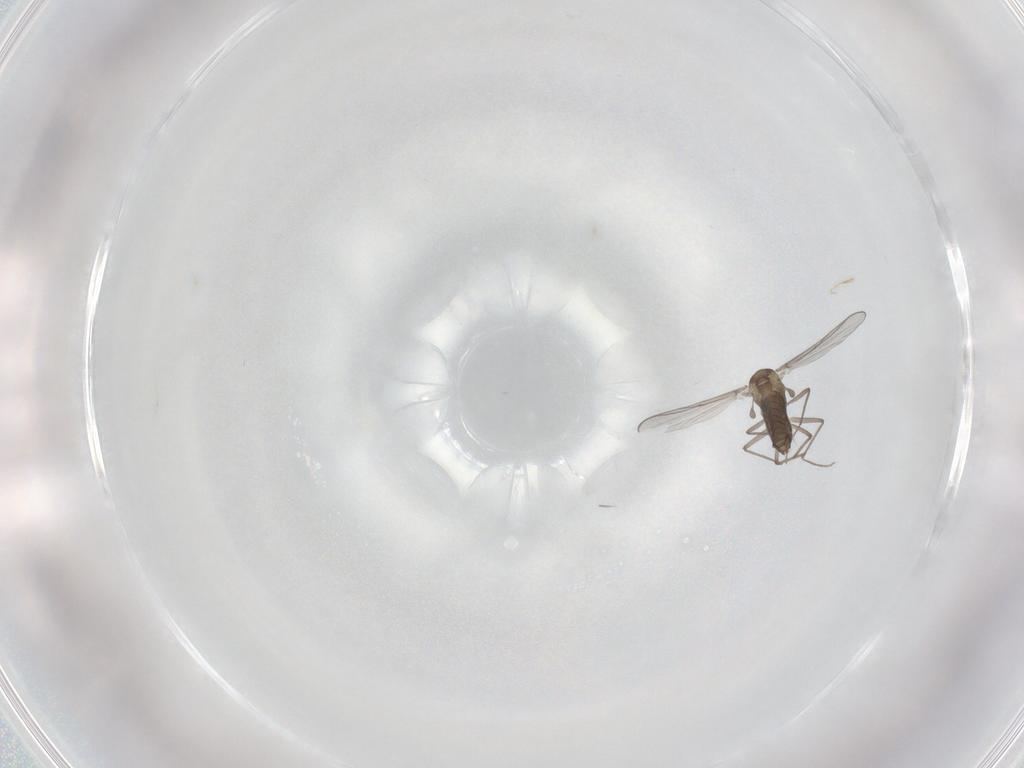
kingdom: Animalia
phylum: Arthropoda
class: Insecta
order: Diptera
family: Chironomidae
